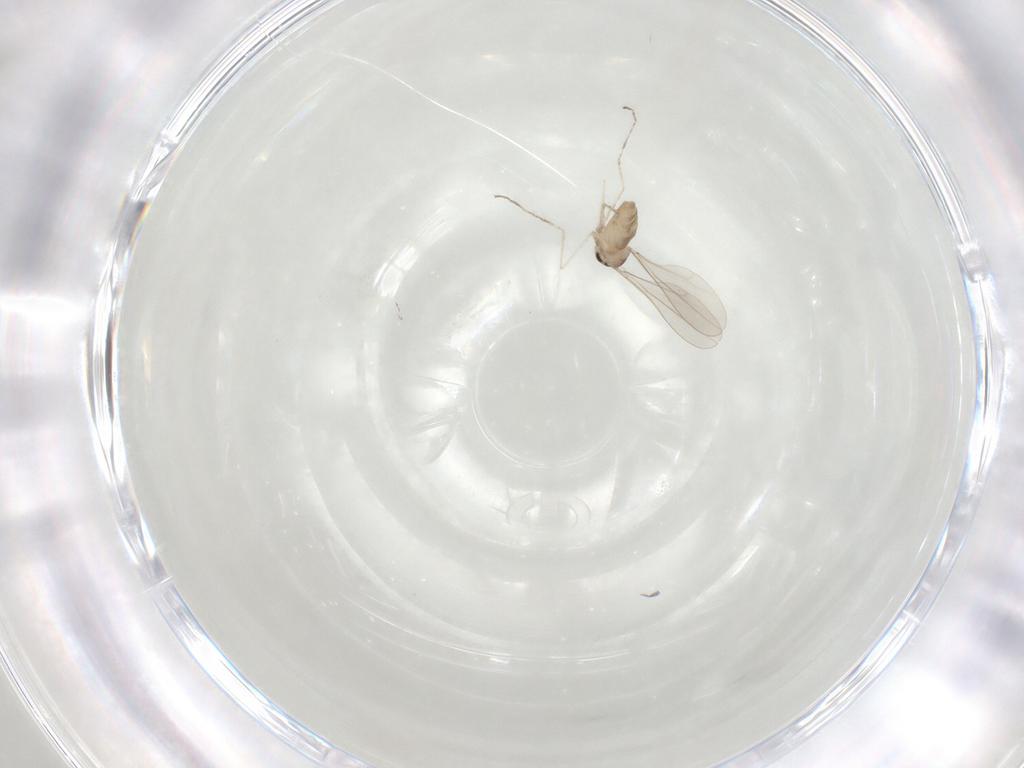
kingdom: Animalia
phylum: Arthropoda
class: Insecta
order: Diptera
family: Cecidomyiidae
